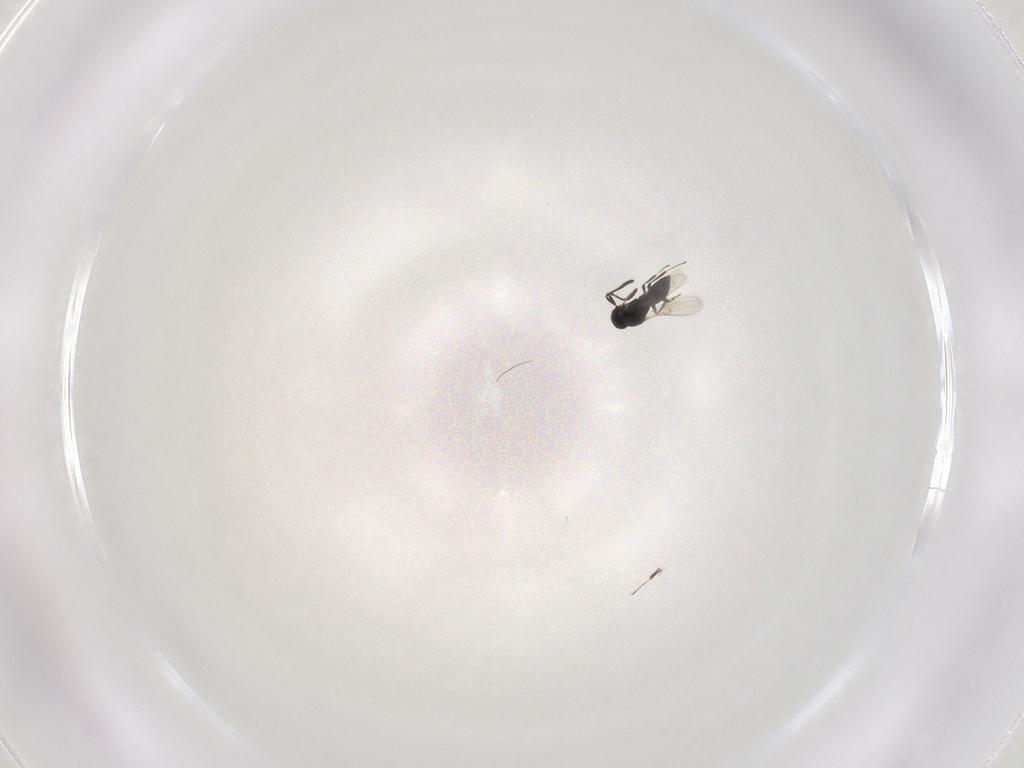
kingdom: Animalia
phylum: Arthropoda
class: Insecta
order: Hymenoptera
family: Scelionidae
